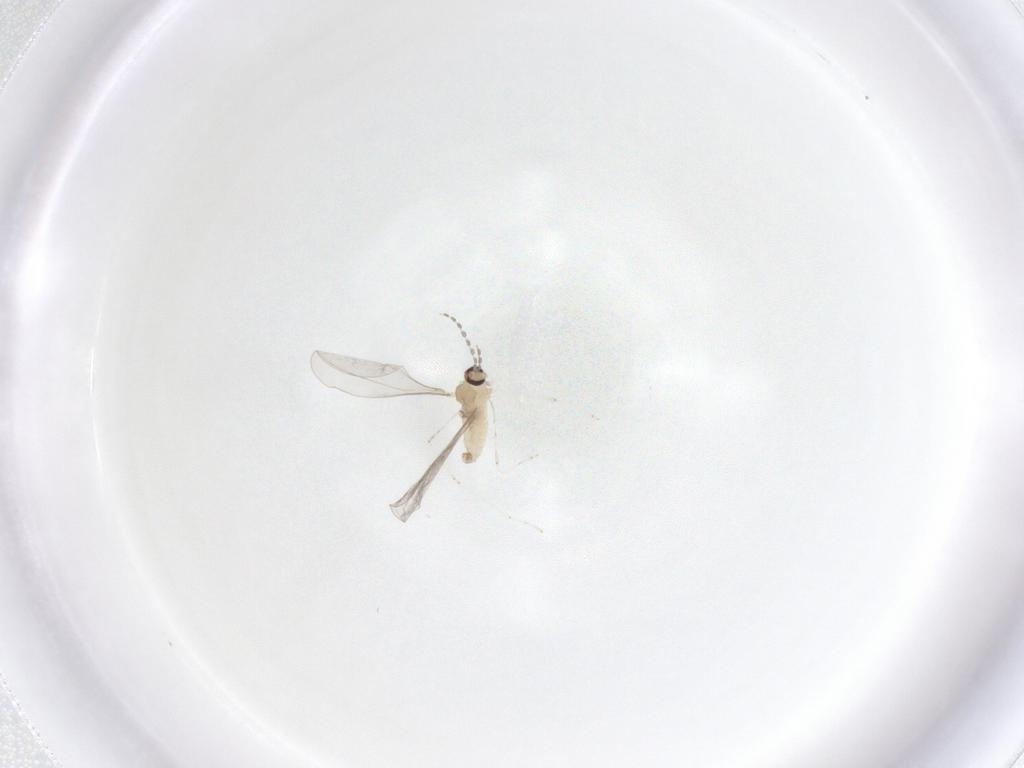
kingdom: Animalia
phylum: Arthropoda
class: Insecta
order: Diptera
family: Cecidomyiidae
